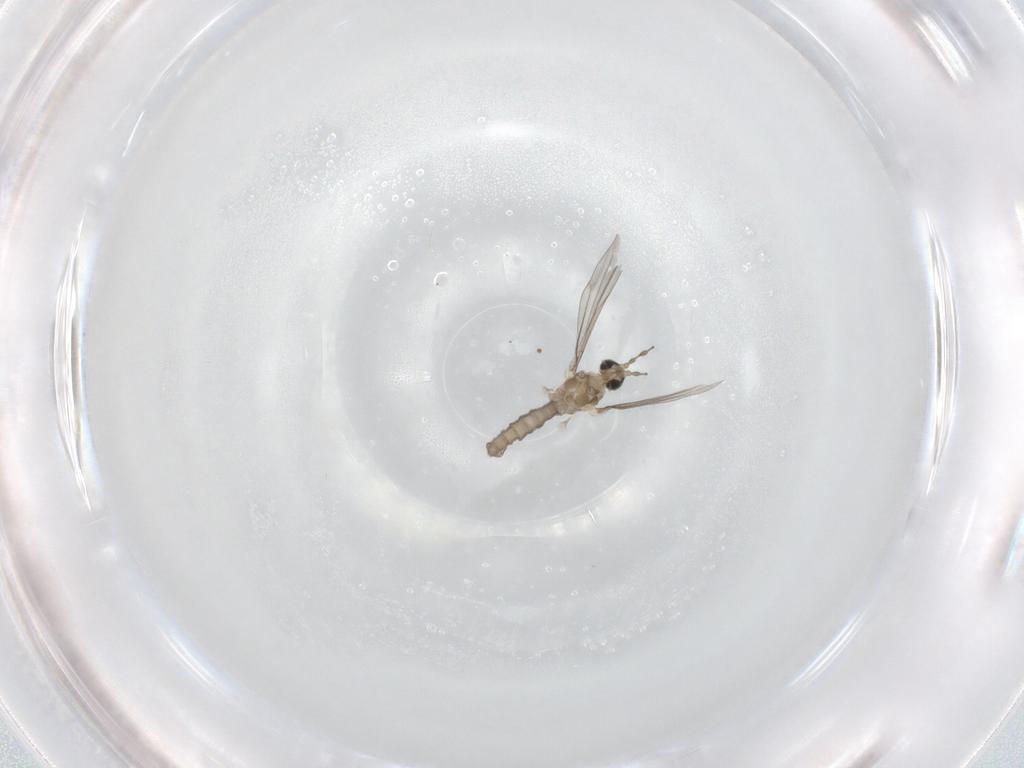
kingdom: Animalia
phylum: Arthropoda
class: Insecta
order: Diptera
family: Cecidomyiidae
